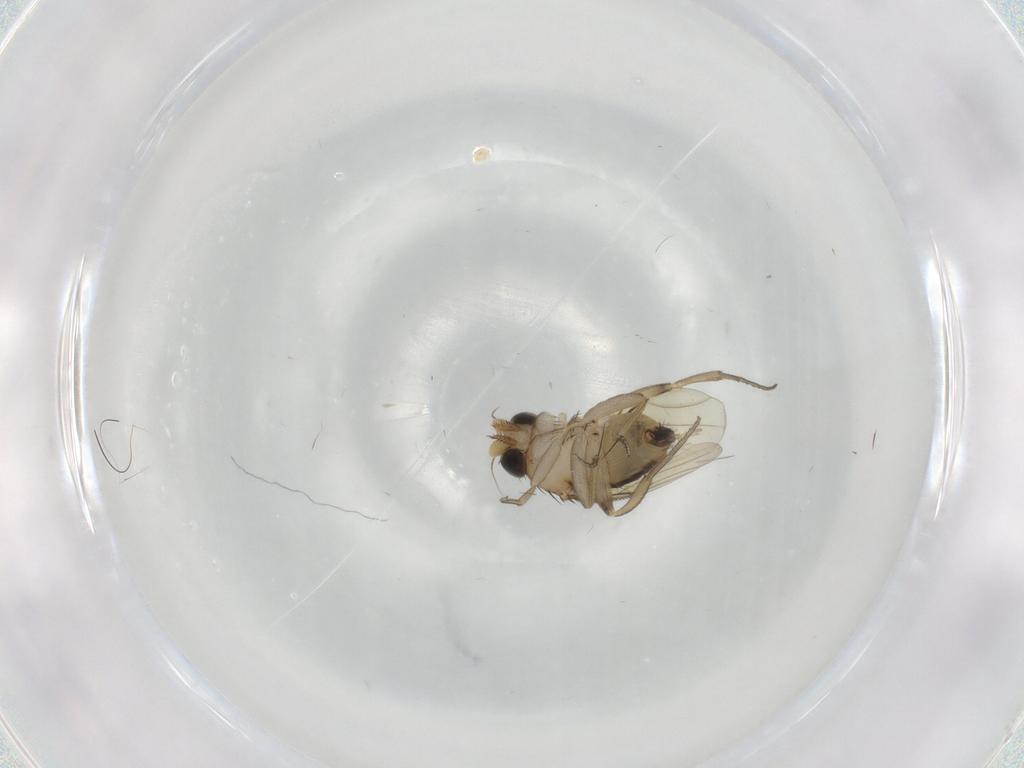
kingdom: Animalia
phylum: Arthropoda
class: Insecta
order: Diptera
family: Phoridae
